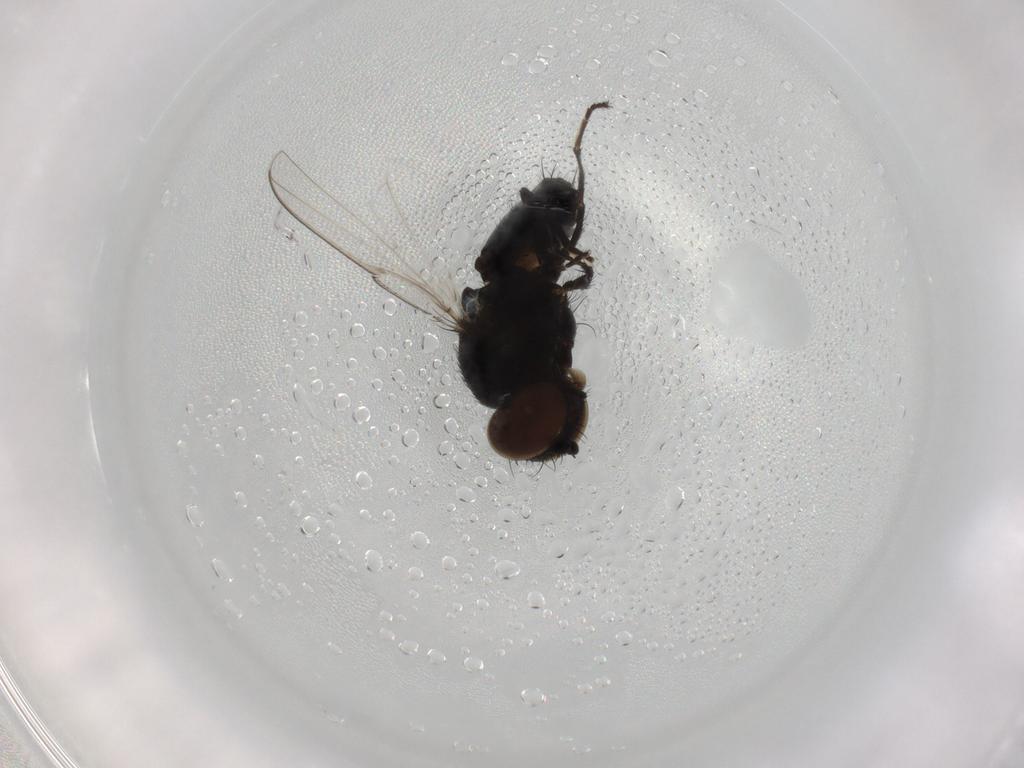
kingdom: Animalia
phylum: Arthropoda
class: Insecta
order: Diptera
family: Milichiidae
